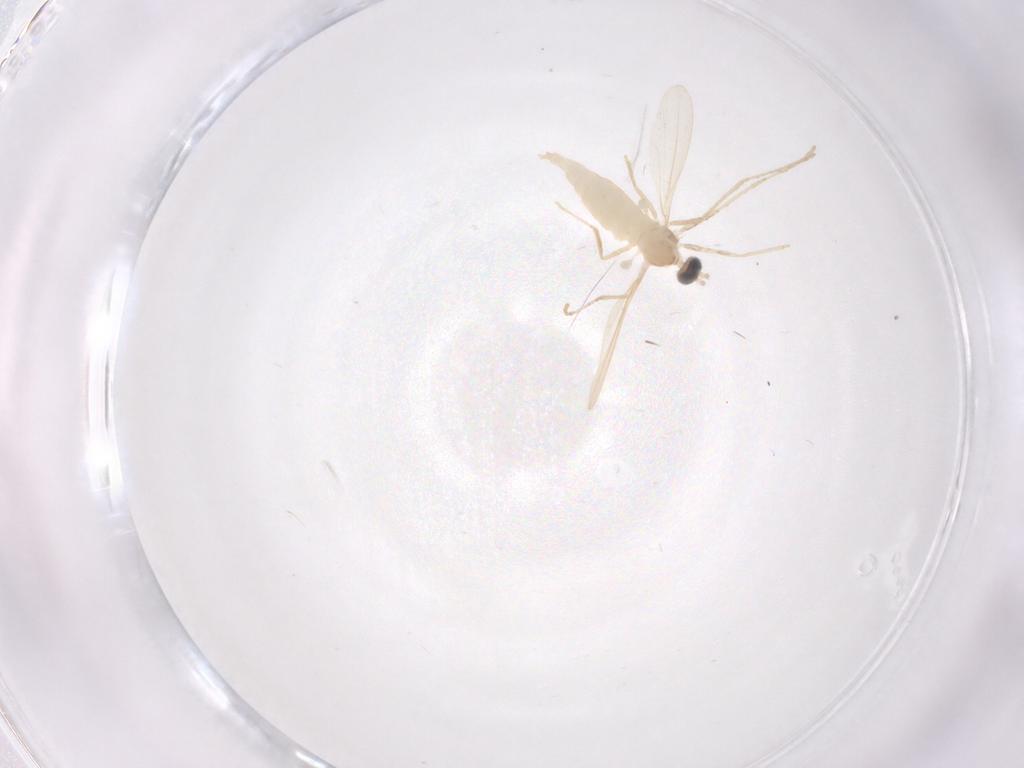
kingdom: Animalia
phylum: Arthropoda
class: Insecta
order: Diptera
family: Cecidomyiidae
